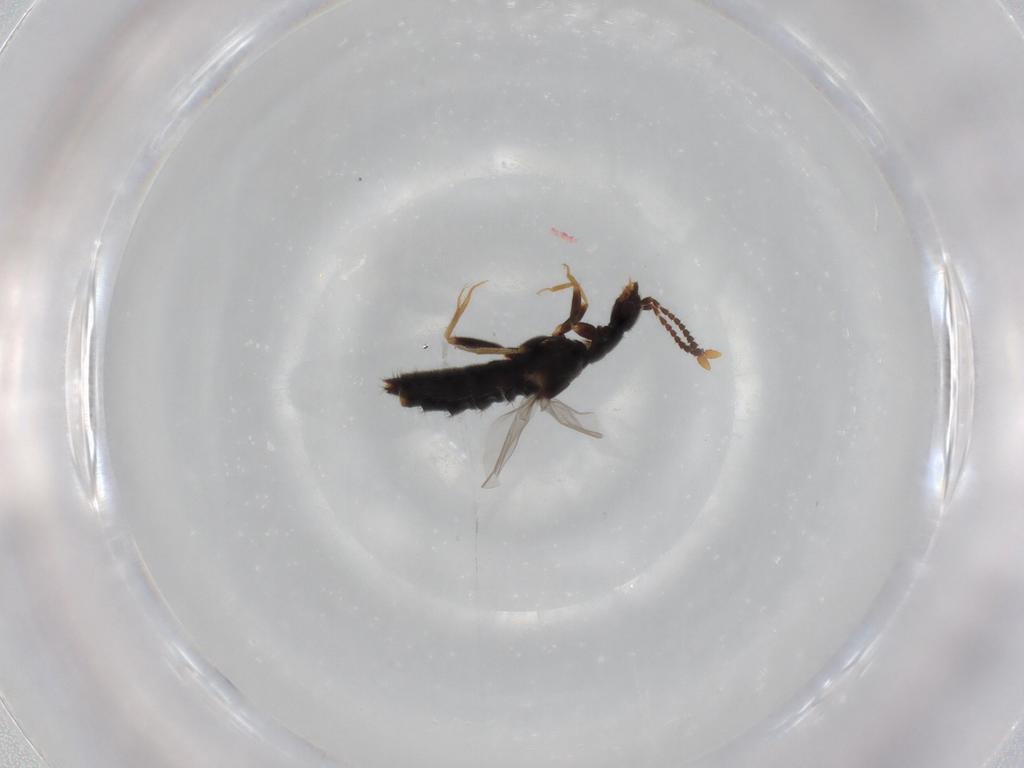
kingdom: Animalia
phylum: Arthropoda
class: Insecta
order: Coleoptera
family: Staphylinidae
